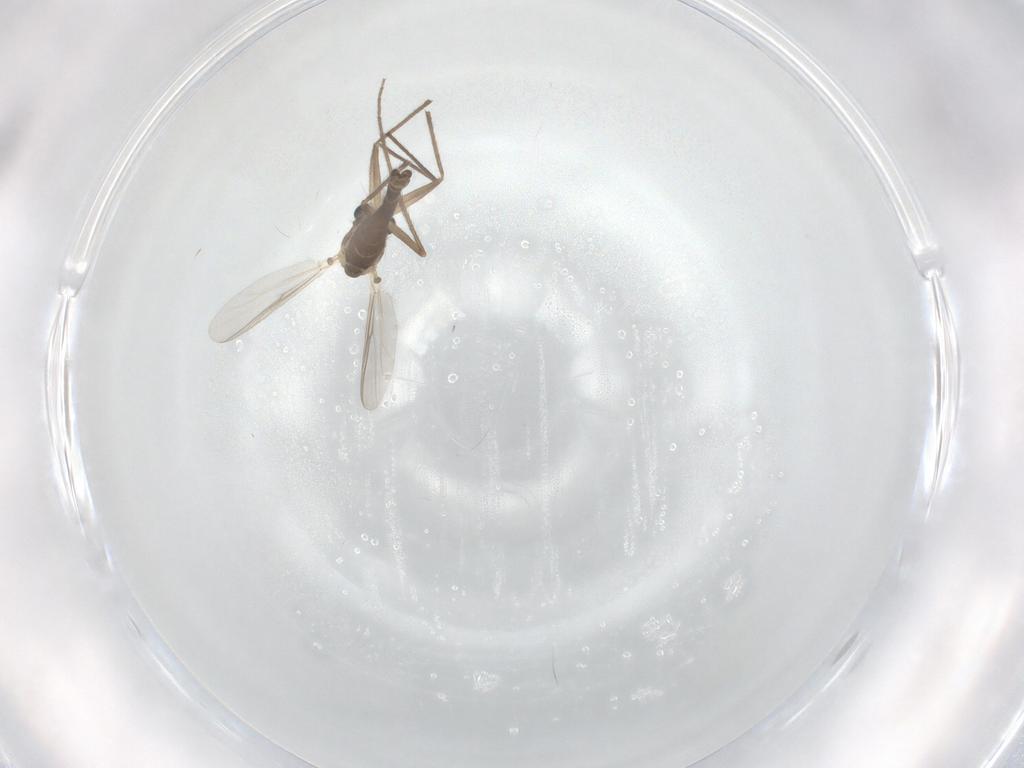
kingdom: Animalia
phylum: Arthropoda
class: Insecta
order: Diptera
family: Chironomidae
